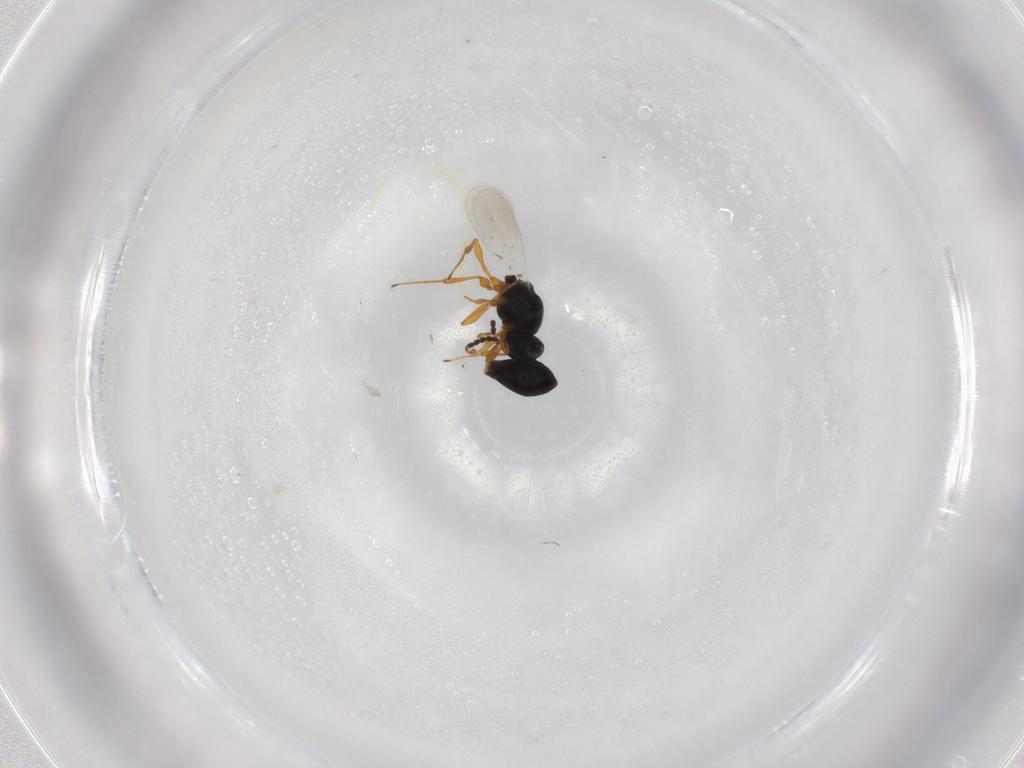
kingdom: Animalia
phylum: Arthropoda
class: Insecta
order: Hymenoptera
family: Platygastridae
